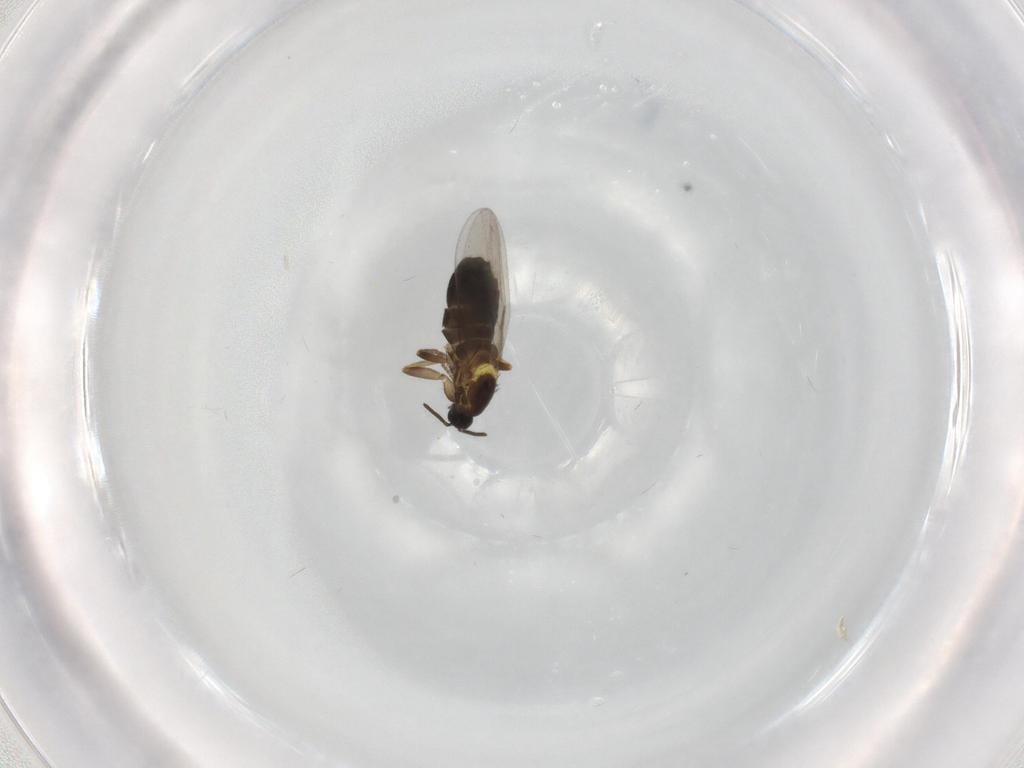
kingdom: Animalia
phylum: Arthropoda
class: Insecta
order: Diptera
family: Scatopsidae
